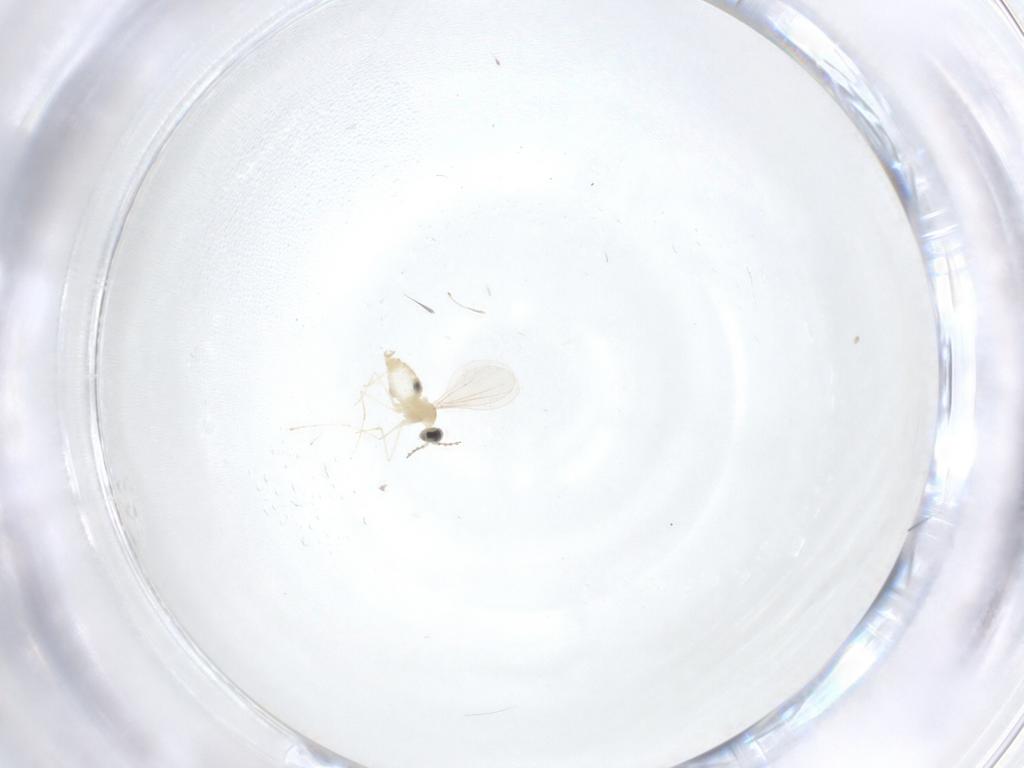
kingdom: Animalia
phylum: Arthropoda
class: Insecta
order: Diptera
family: Cecidomyiidae
